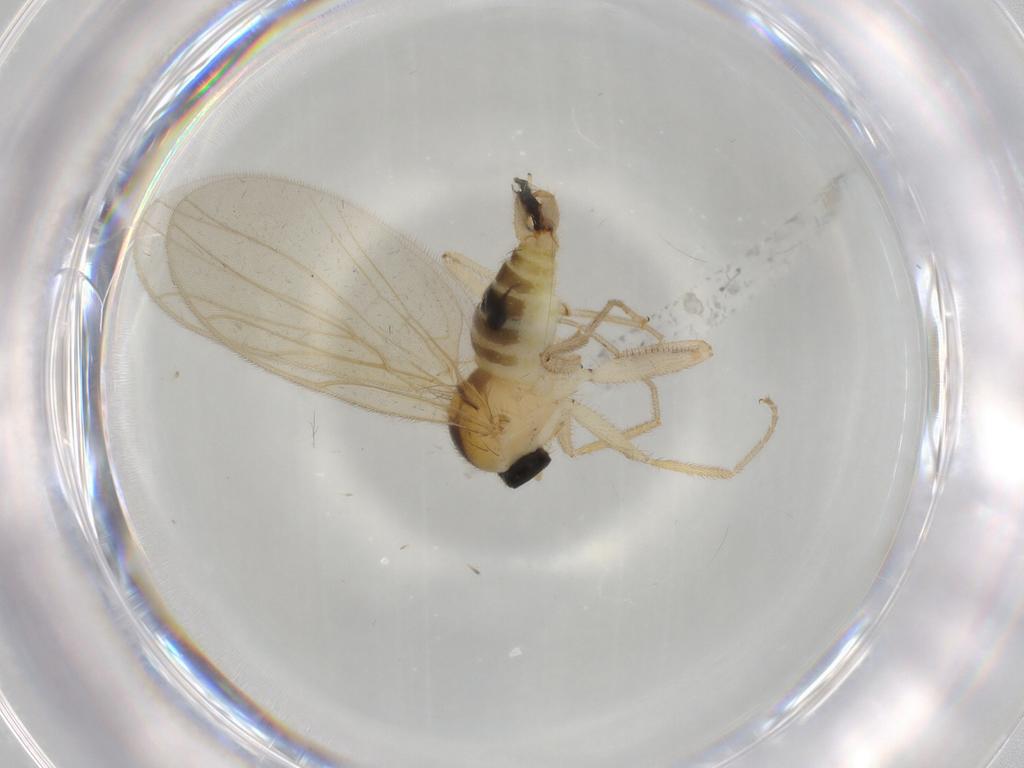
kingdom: Animalia
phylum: Arthropoda
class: Insecta
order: Diptera
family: Hybotidae
